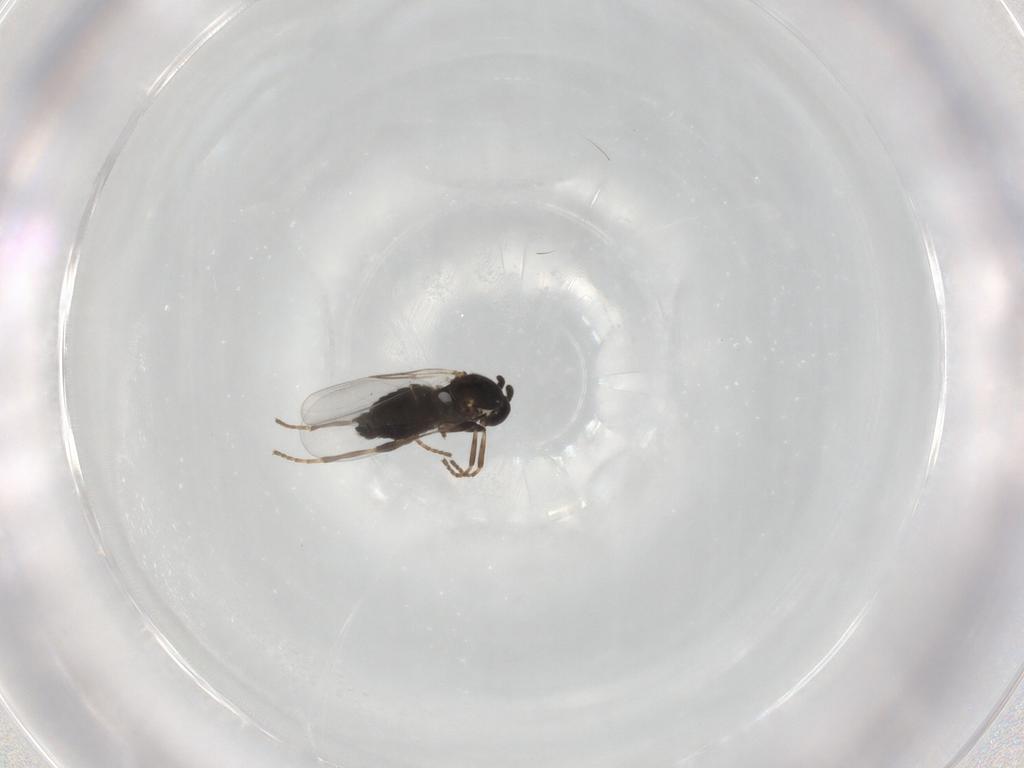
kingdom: Animalia
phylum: Arthropoda
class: Insecta
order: Diptera
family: Scatopsidae
